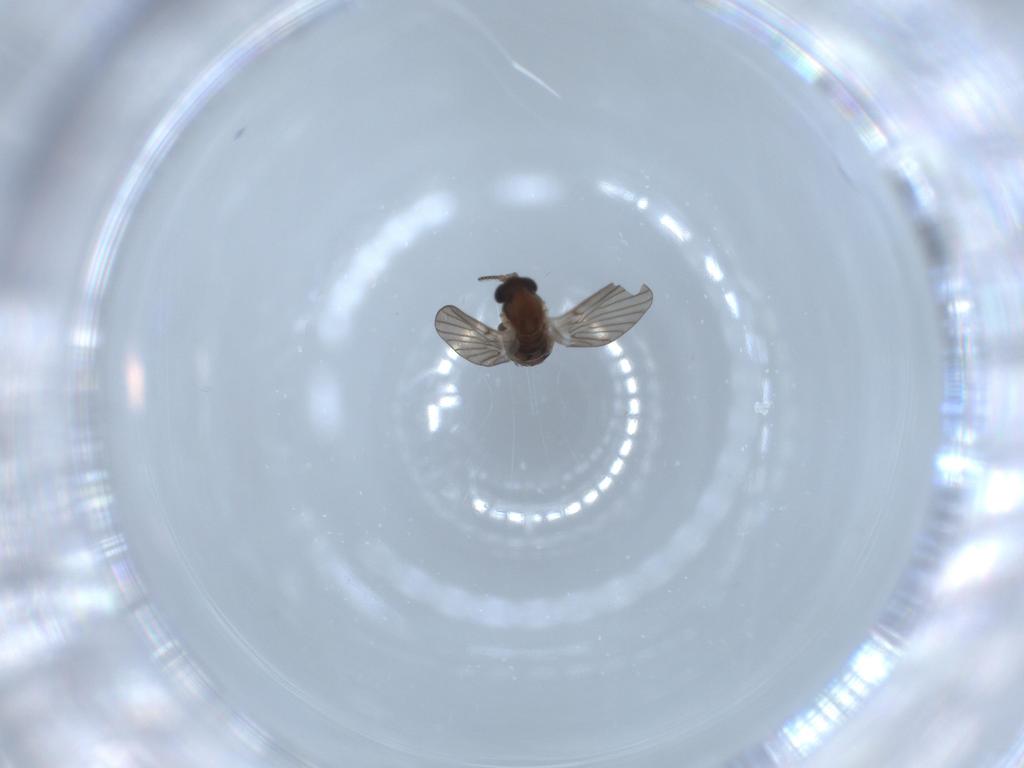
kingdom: Animalia
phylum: Arthropoda
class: Insecta
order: Diptera
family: Psychodidae
